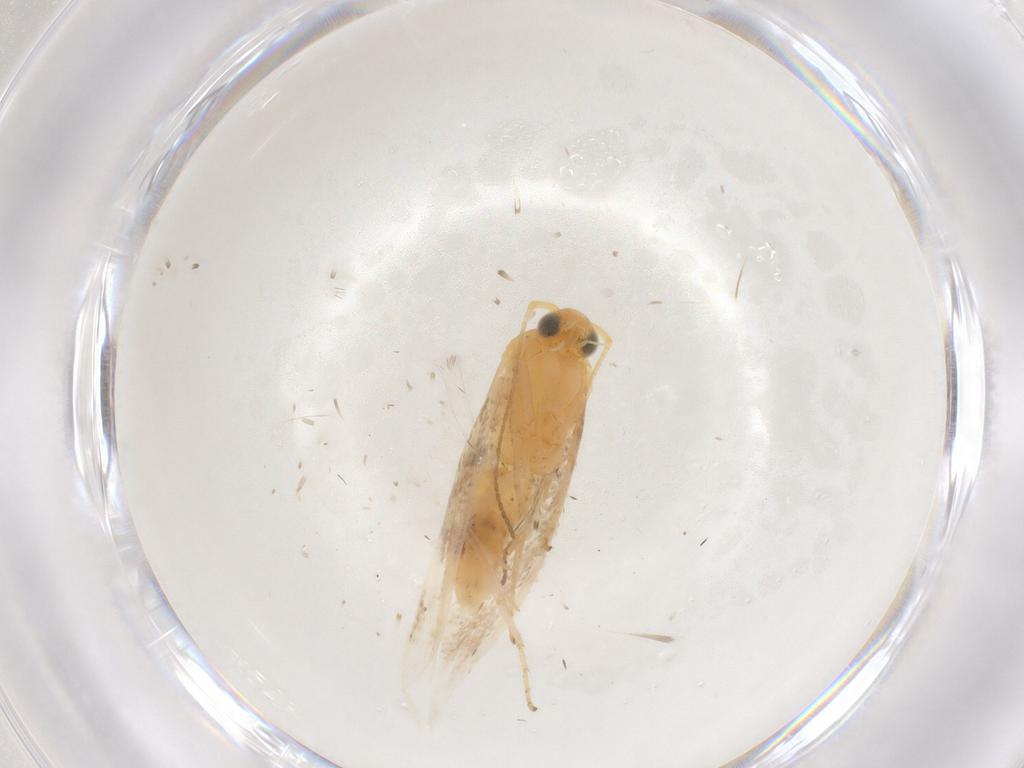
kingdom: Animalia
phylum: Arthropoda
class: Insecta
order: Lepidoptera
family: Argyresthiidae
